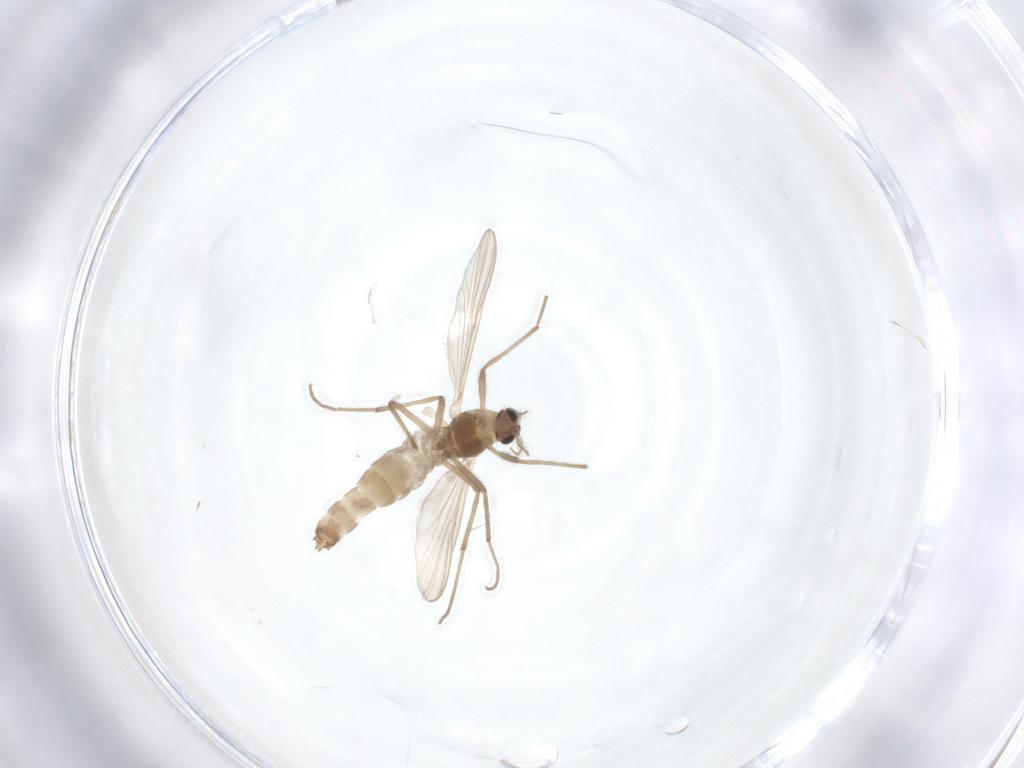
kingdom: Animalia
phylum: Arthropoda
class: Insecta
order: Diptera
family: Chironomidae
